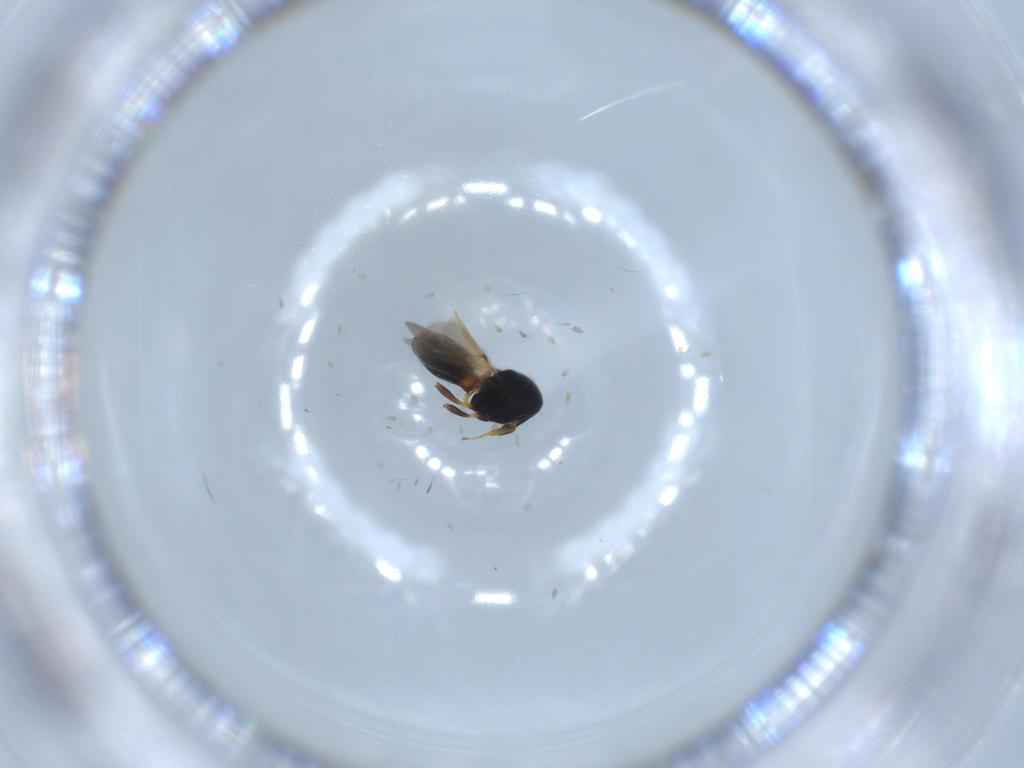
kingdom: Animalia
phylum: Arthropoda
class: Insecta
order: Hymenoptera
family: Scelionidae
